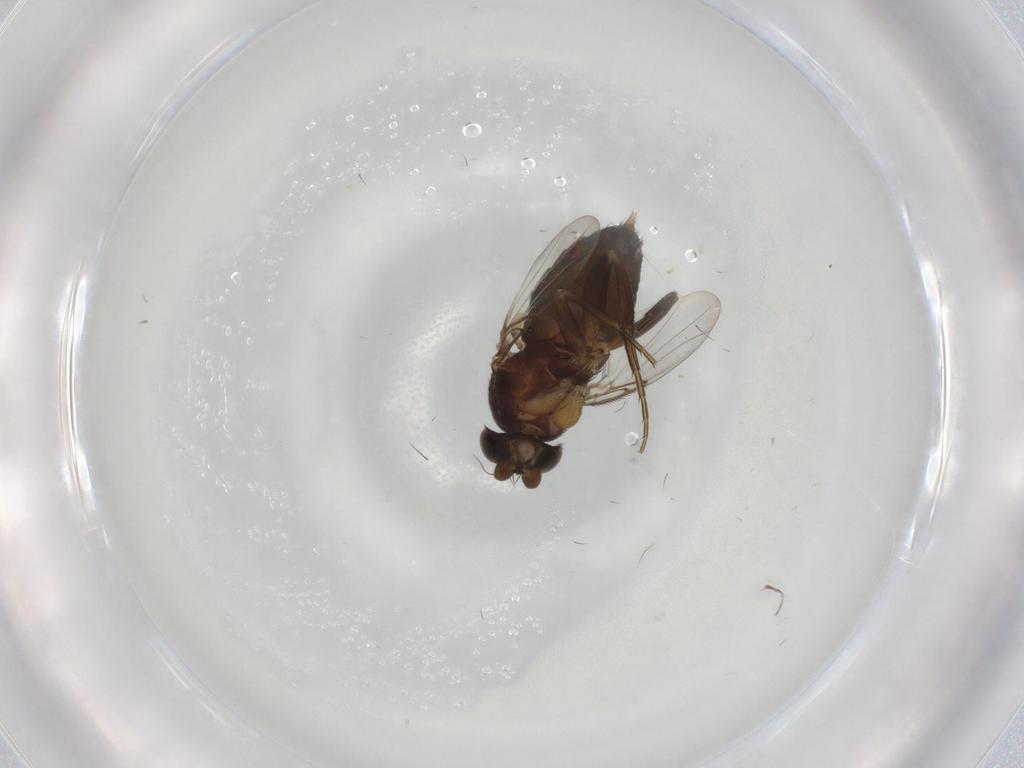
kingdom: Animalia
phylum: Arthropoda
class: Insecta
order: Diptera
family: Phoridae
